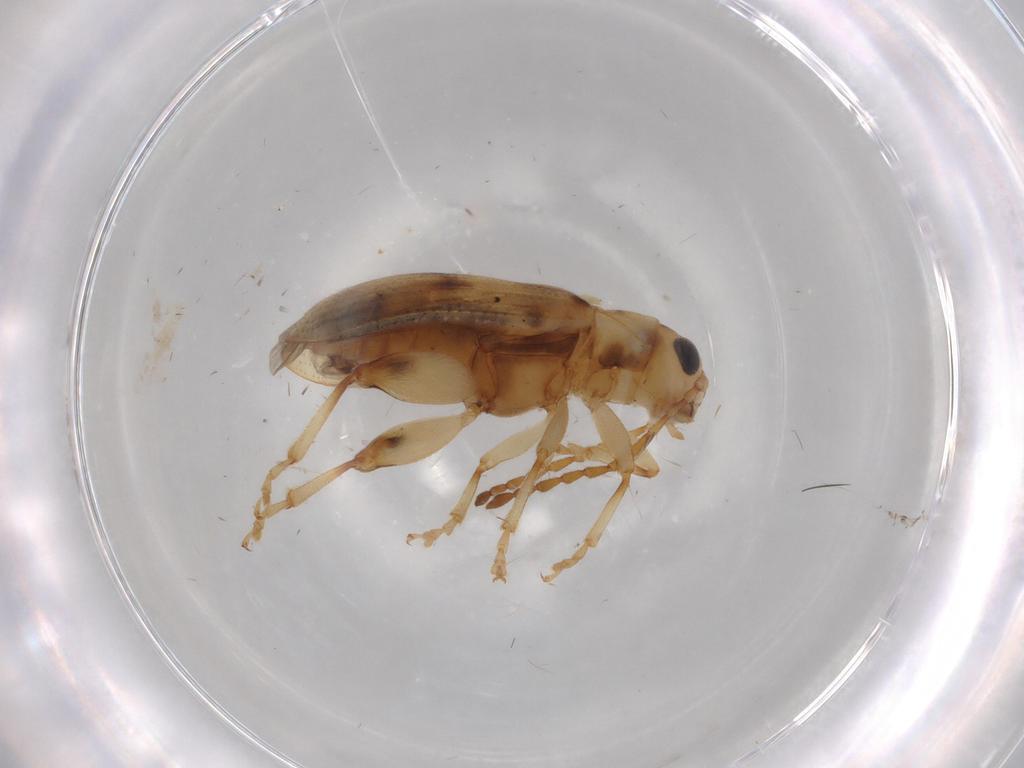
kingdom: Animalia
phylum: Arthropoda
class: Insecta
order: Coleoptera
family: Chrysomelidae
